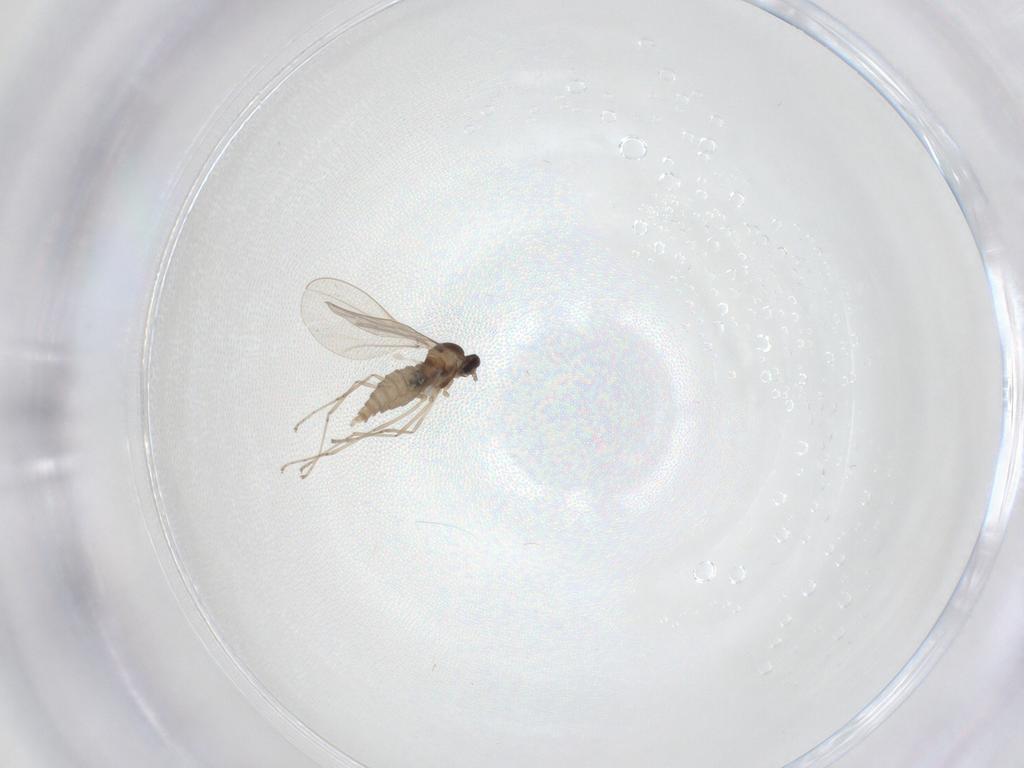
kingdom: Animalia
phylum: Arthropoda
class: Insecta
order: Diptera
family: Cecidomyiidae
